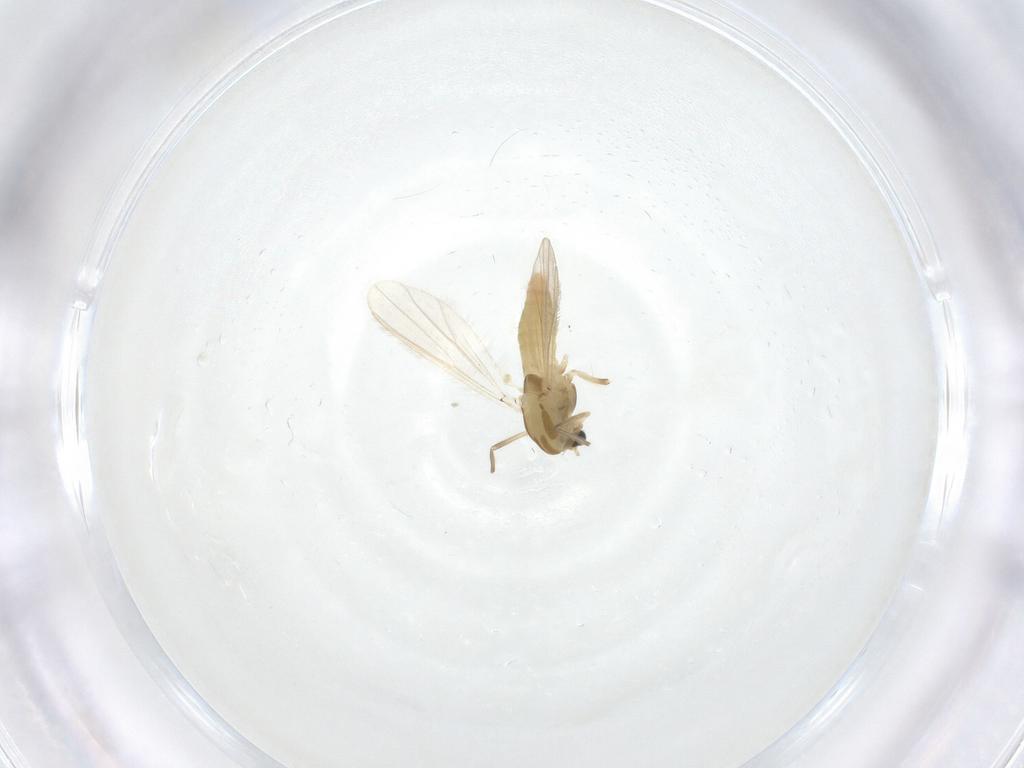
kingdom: Animalia
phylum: Arthropoda
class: Insecta
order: Diptera
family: Chironomidae
